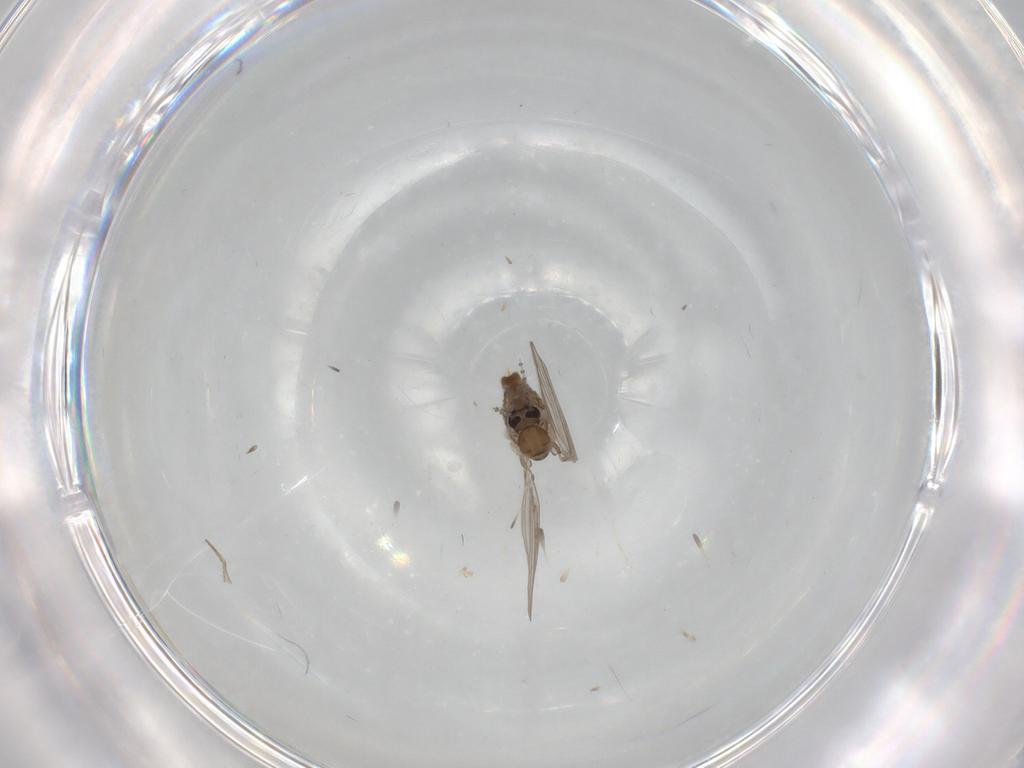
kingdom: Animalia
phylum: Arthropoda
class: Insecta
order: Diptera
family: Psychodidae
